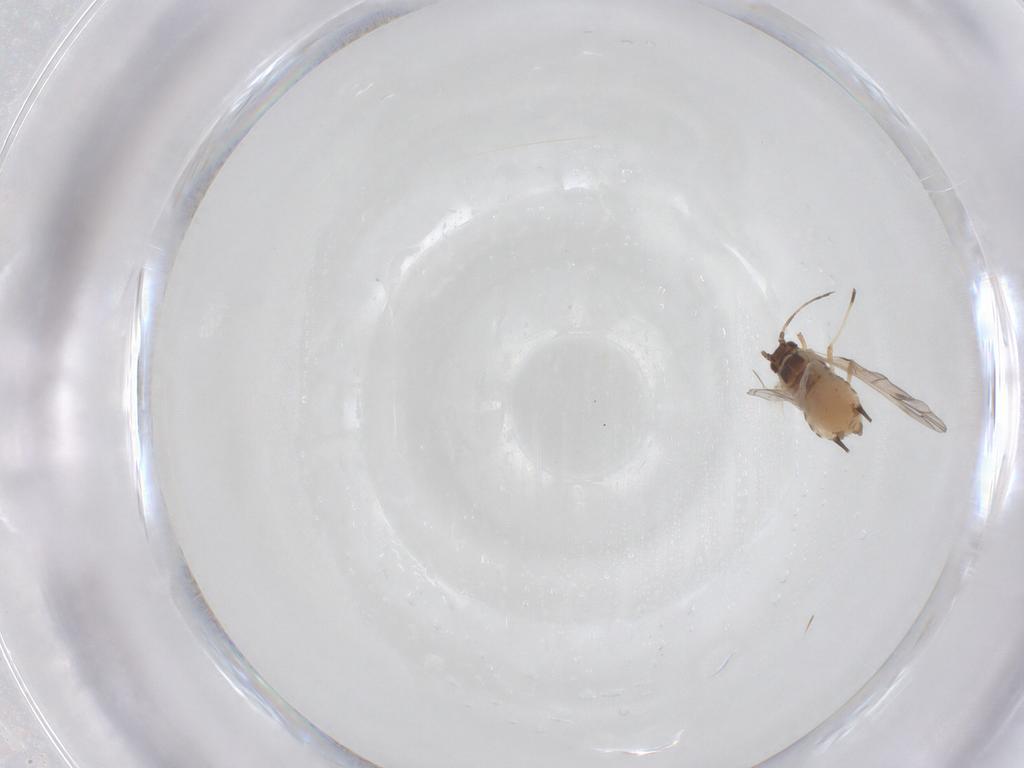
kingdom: Animalia
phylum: Arthropoda
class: Insecta
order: Hemiptera
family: Aphididae
